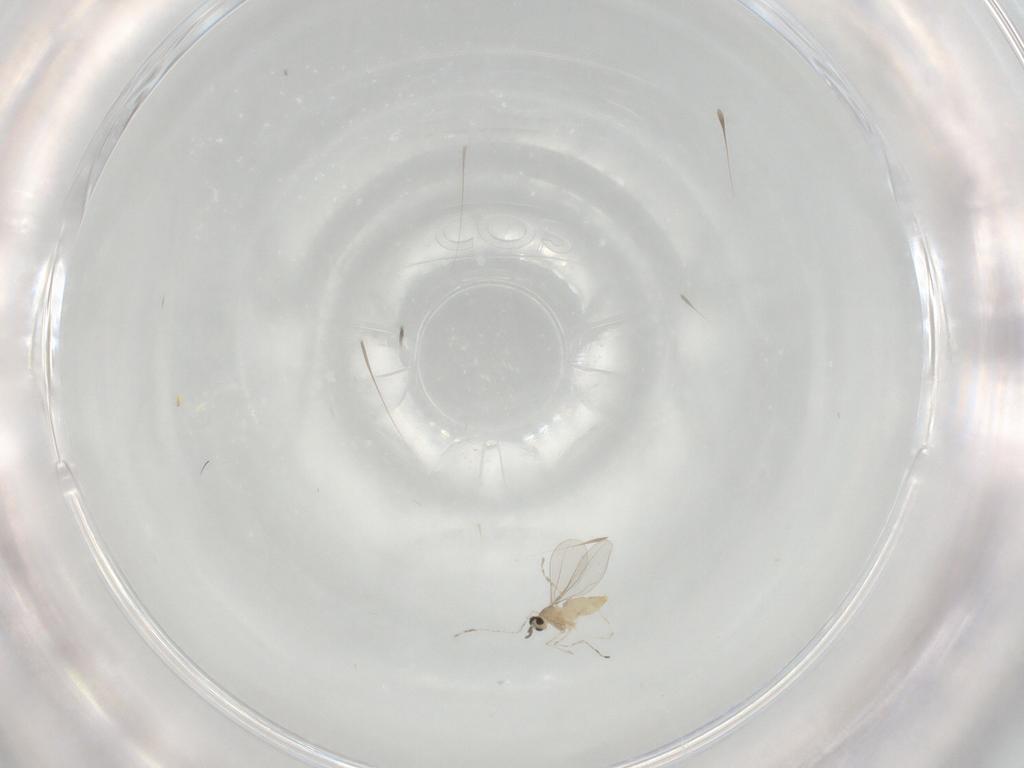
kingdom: Animalia
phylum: Arthropoda
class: Insecta
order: Diptera
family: Cecidomyiidae
